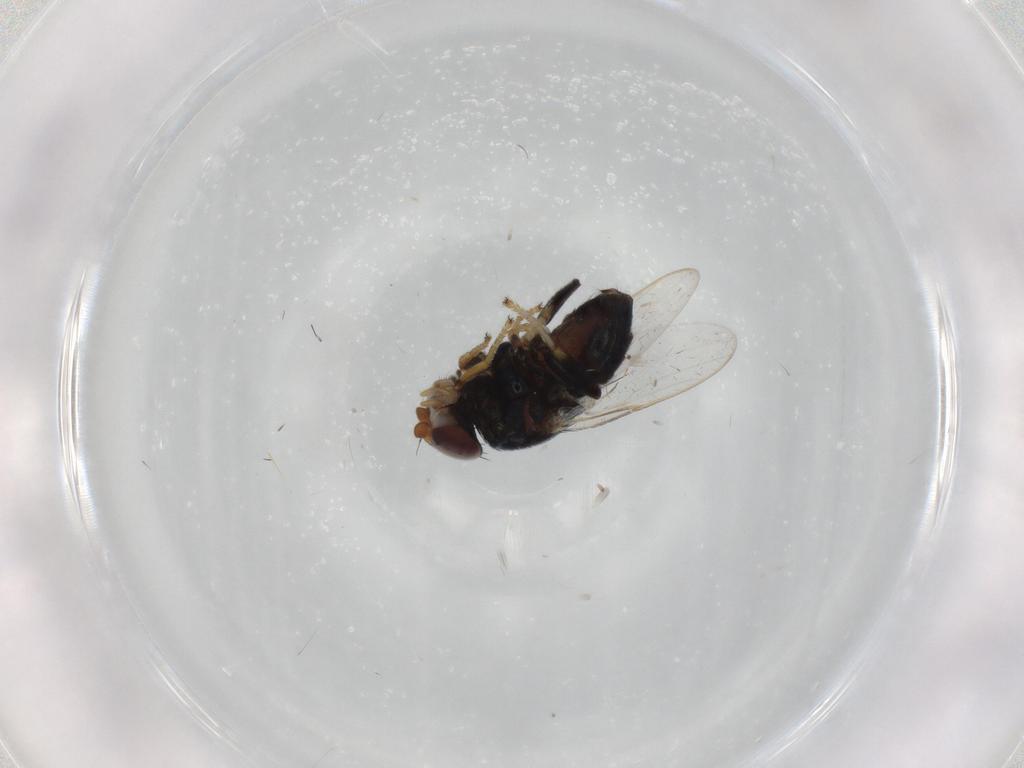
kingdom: Animalia
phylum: Arthropoda
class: Insecta
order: Diptera
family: Chloropidae
